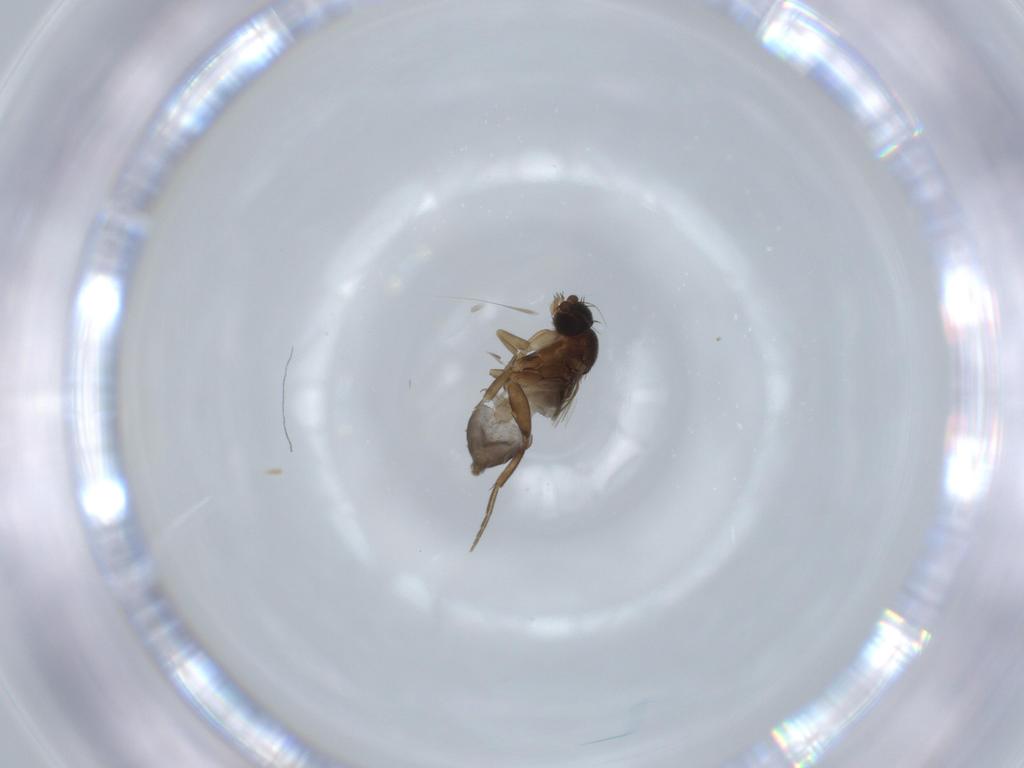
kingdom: Animalia
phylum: Arthropoda
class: Insecta
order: Diptera
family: Phoridae
